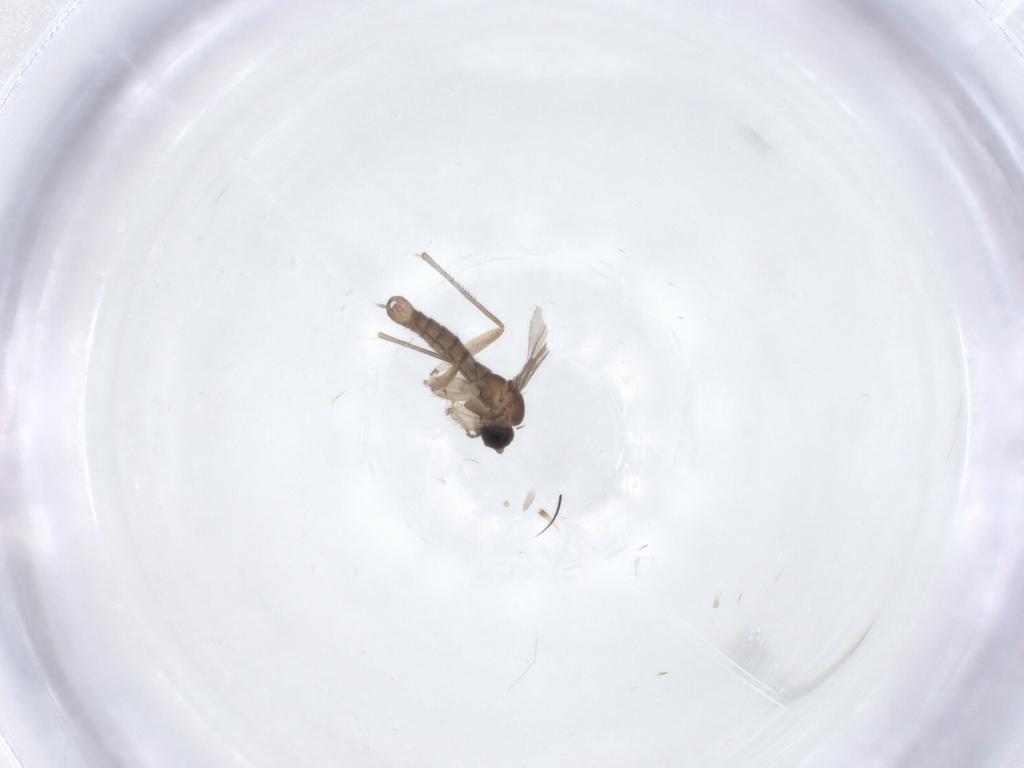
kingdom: Animalia
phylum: Arthropoda
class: Insecta
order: Diptera
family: Sciaridae
